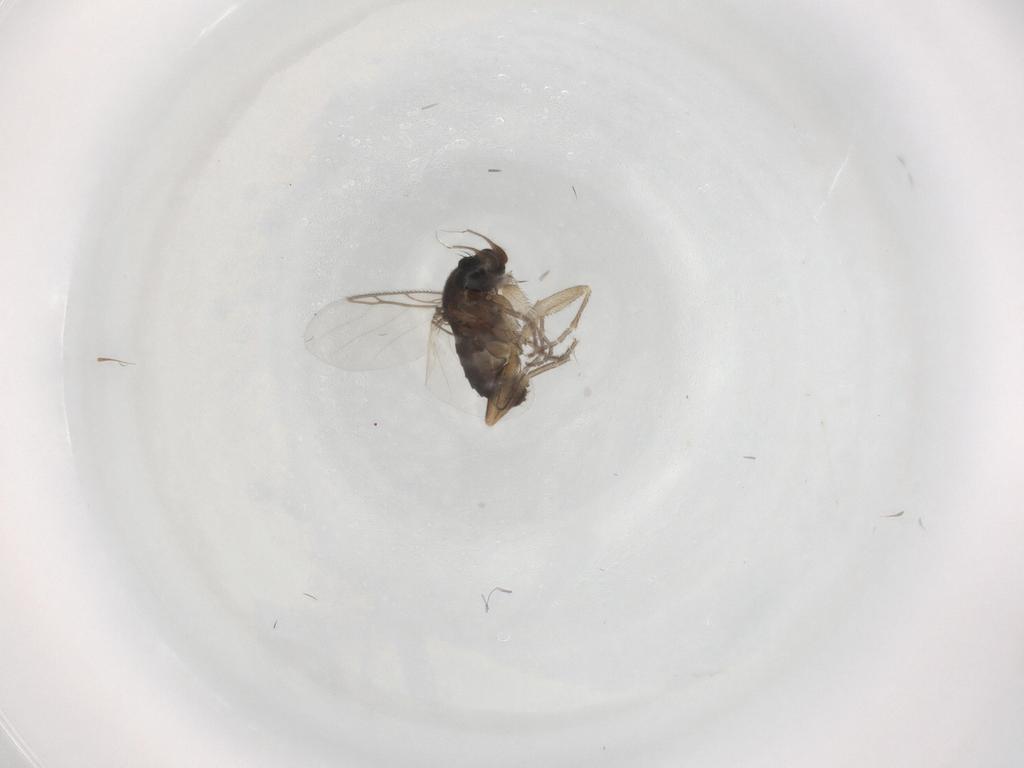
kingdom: Animalia
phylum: Arthropoda
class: Insecta
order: Diptera
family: Phoridae
